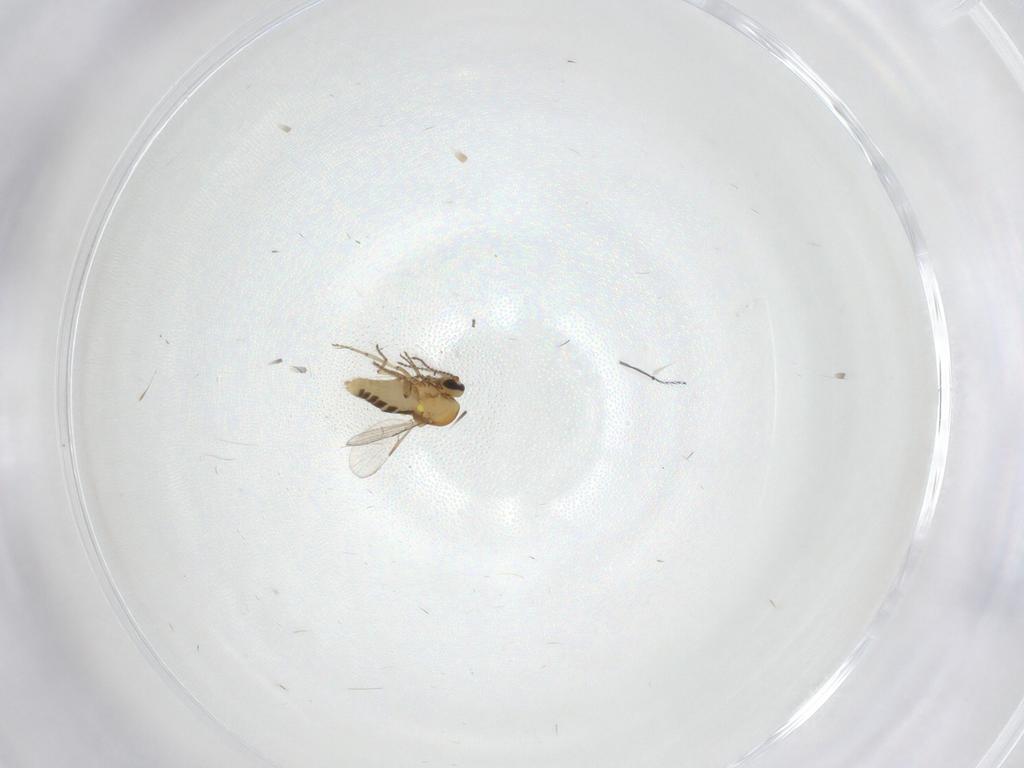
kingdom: Animalia
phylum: Arthropoda
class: Insecta
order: Diptera
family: Ceratopogonidae
